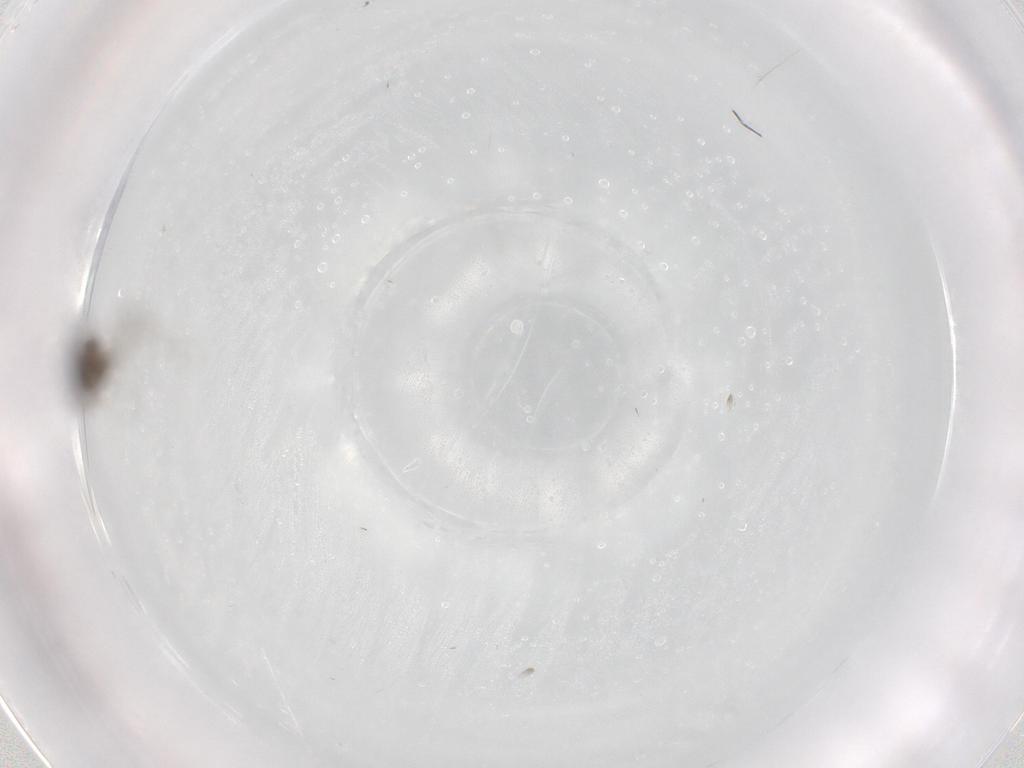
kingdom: Animalia
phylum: Arthropoda
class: Insecta
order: Diptera
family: Cecidomyiidae
